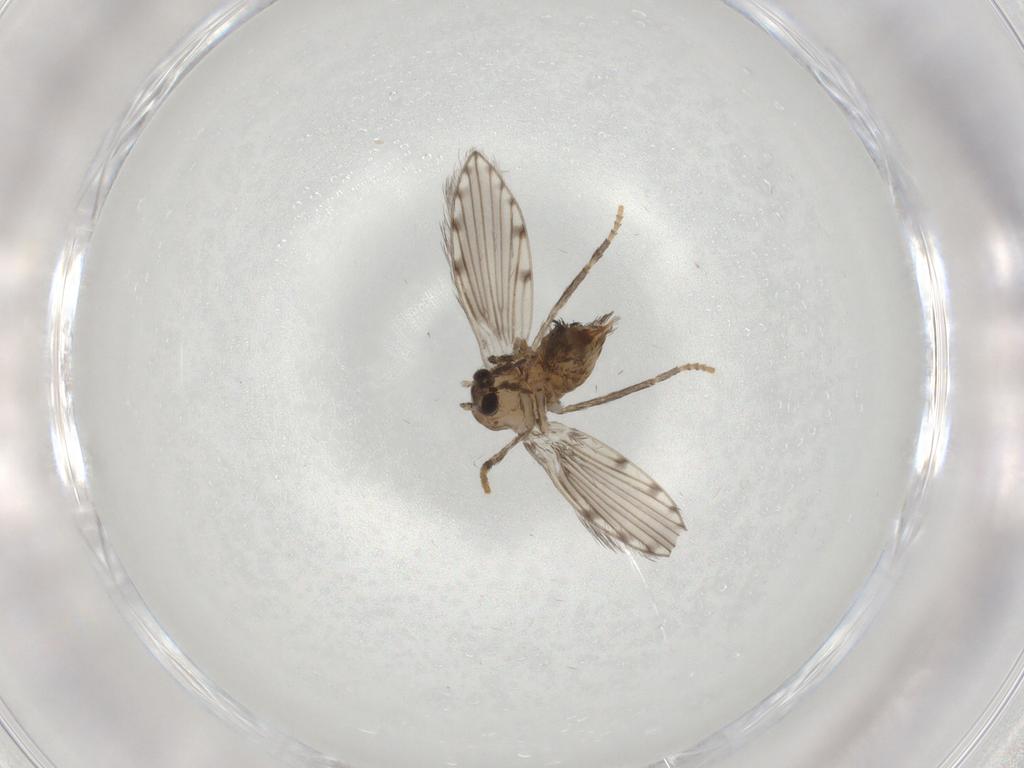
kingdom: Animalia
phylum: Arthropoda
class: Insecta
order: Diptera
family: Psychodidae
